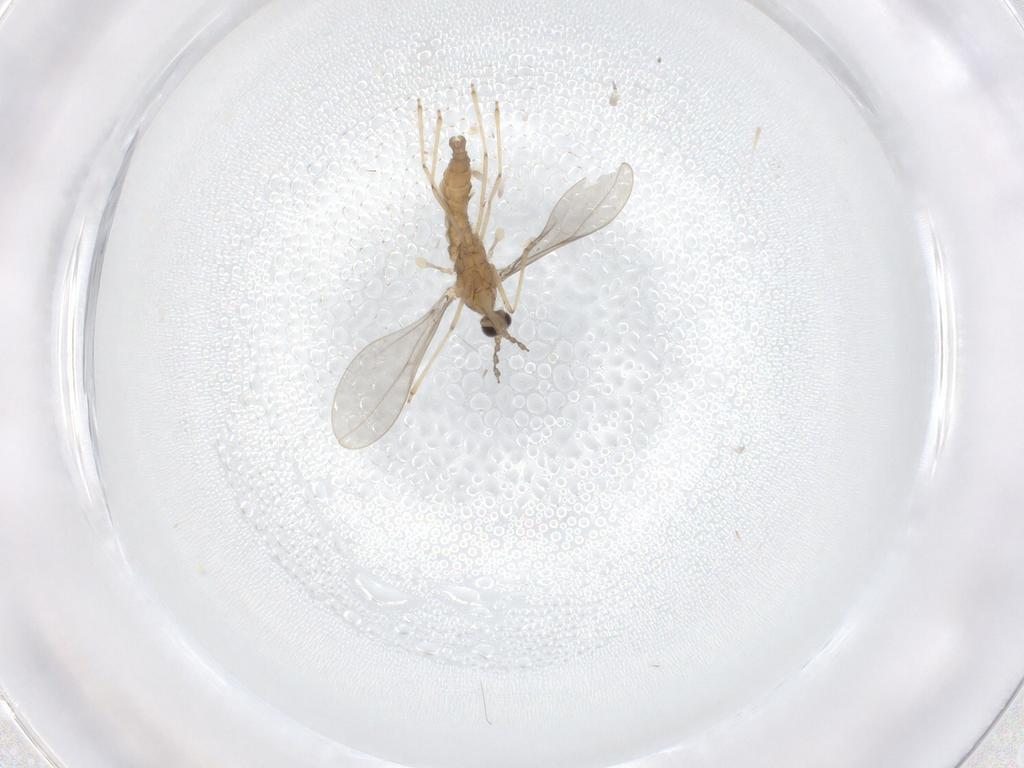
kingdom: Animalia
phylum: Arthropoda
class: Insecta
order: Diptera
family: Cecidomyiidae
